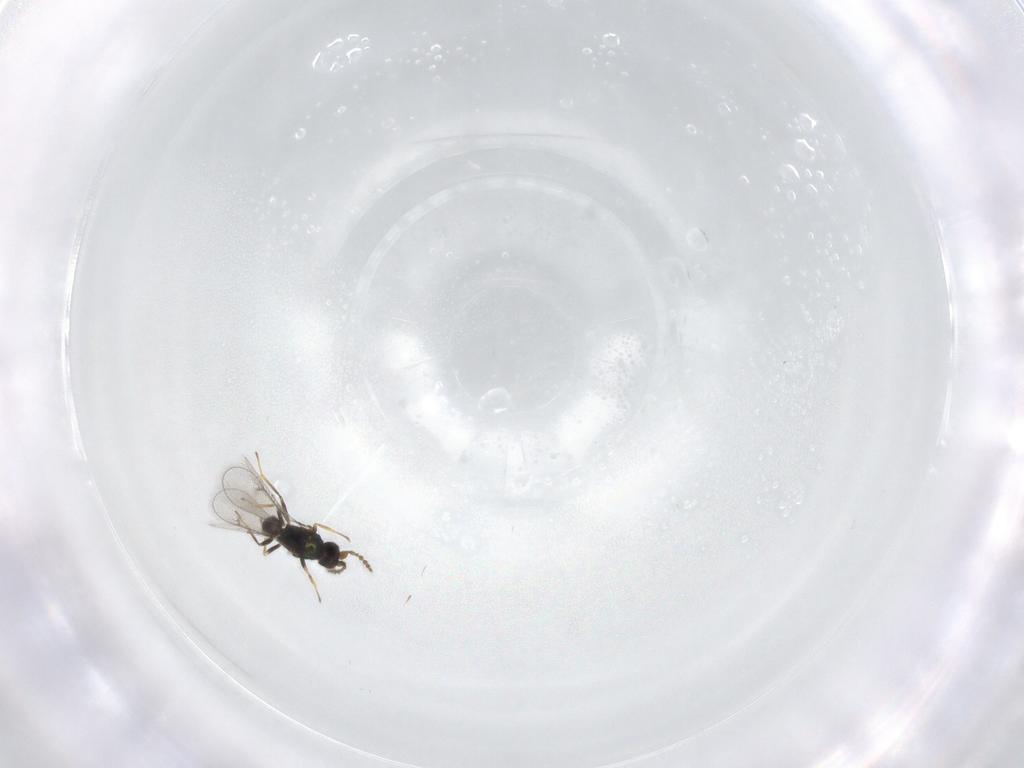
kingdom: Animalia
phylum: Arthropoda
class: Insecta
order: Hymenoptera
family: Eulophidae
